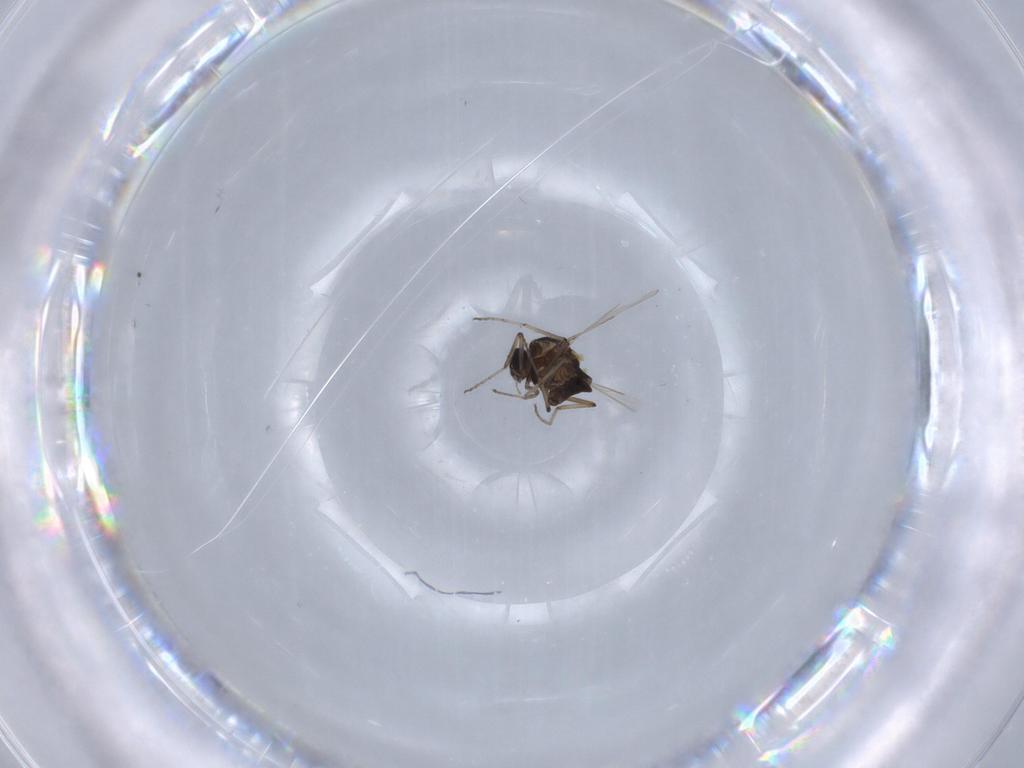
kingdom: Animalia
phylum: Arthropoda
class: Insecta
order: Diptera
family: Ceratopogonidae
